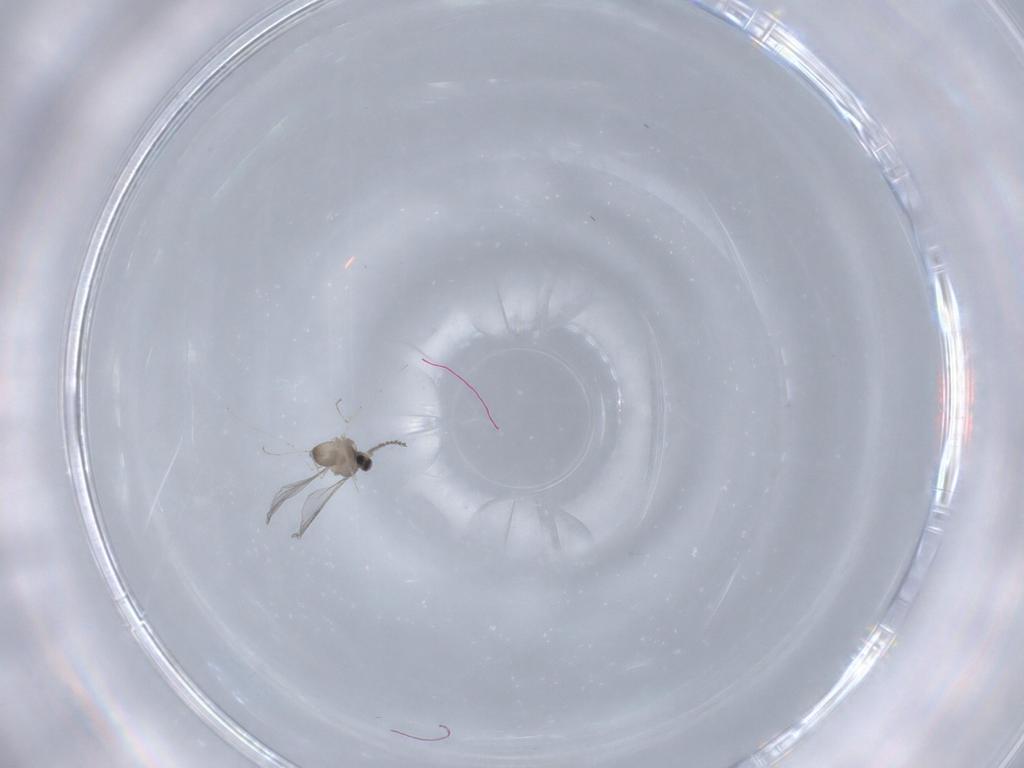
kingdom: Animalia
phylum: Arthropoda
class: Insecta
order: Diptera
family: Cecidomyiidae
